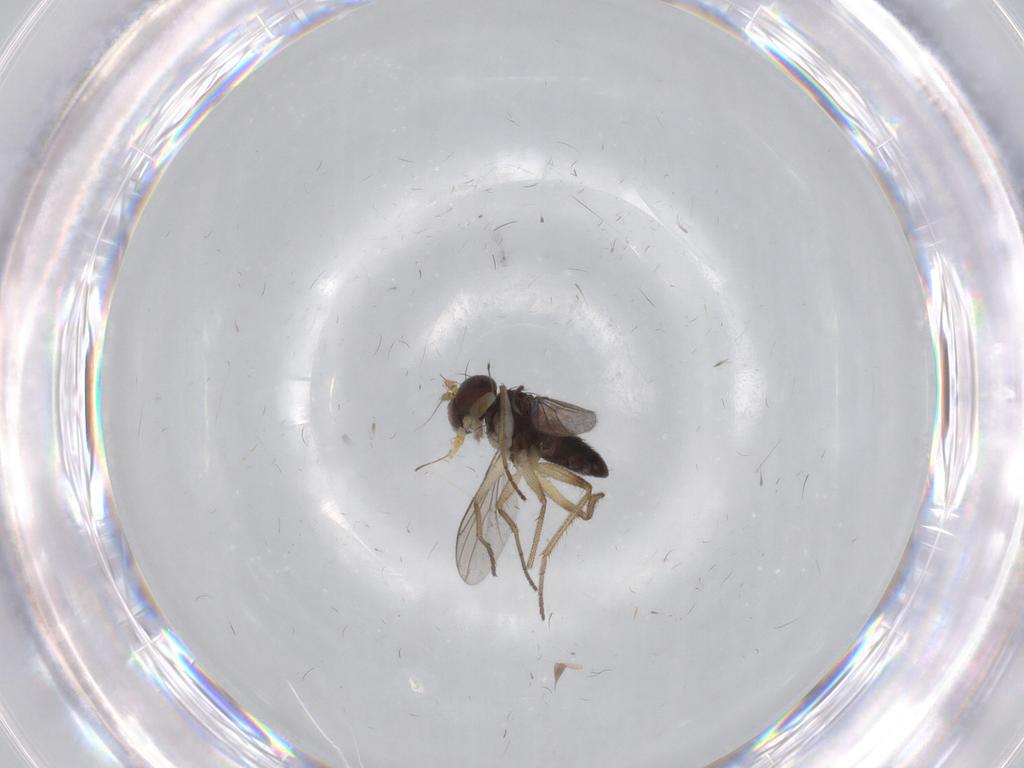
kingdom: Animalia
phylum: Arthropoda
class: Insecta
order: Diptera
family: Dolichopodidae
